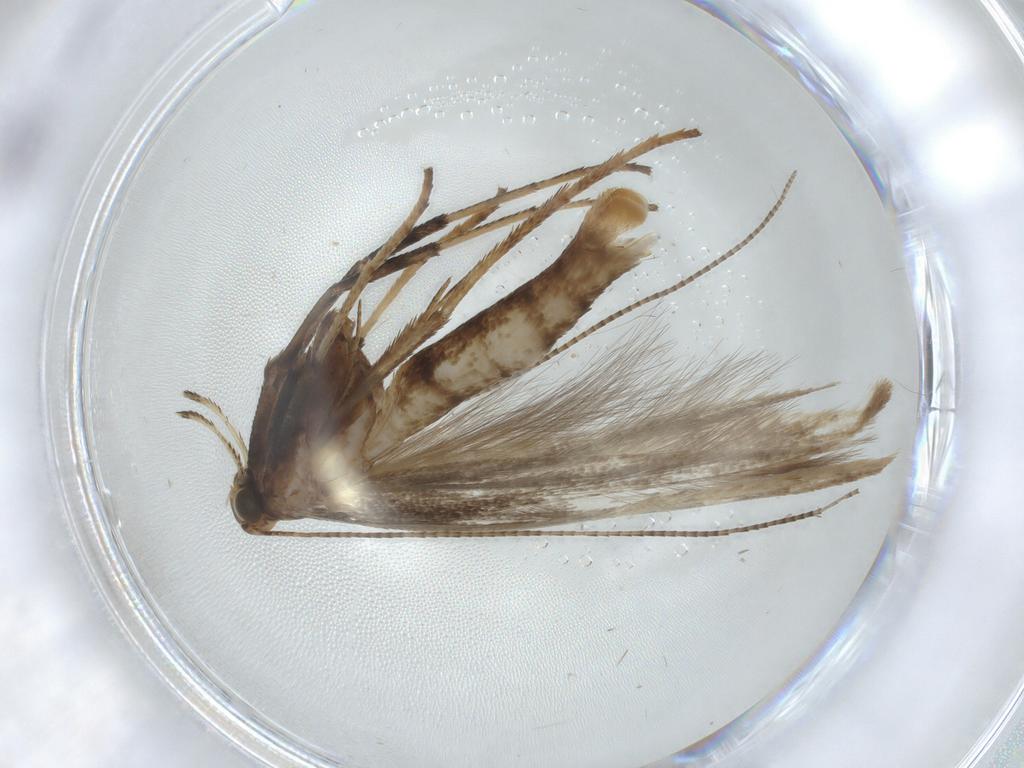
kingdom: Animalia
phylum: Arthropoda
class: Insecta
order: Lepidoptera
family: Gracillariidae
